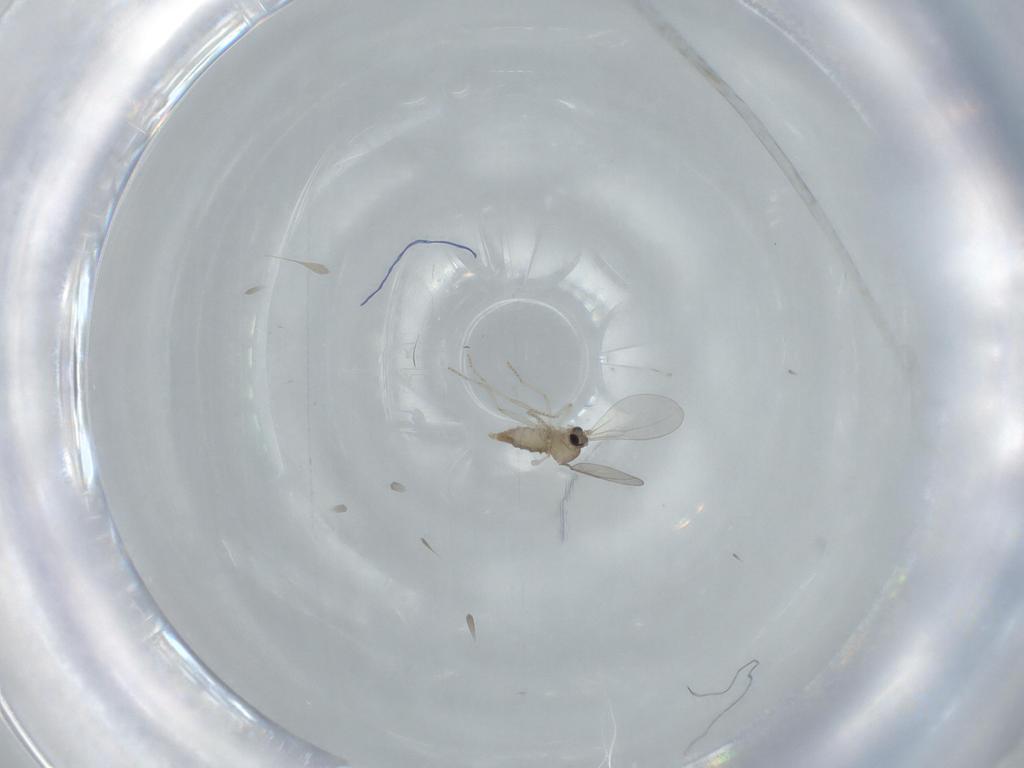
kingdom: Animalia
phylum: Arthropoda
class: Insecta
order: Diptera
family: Cecidomyiidae
